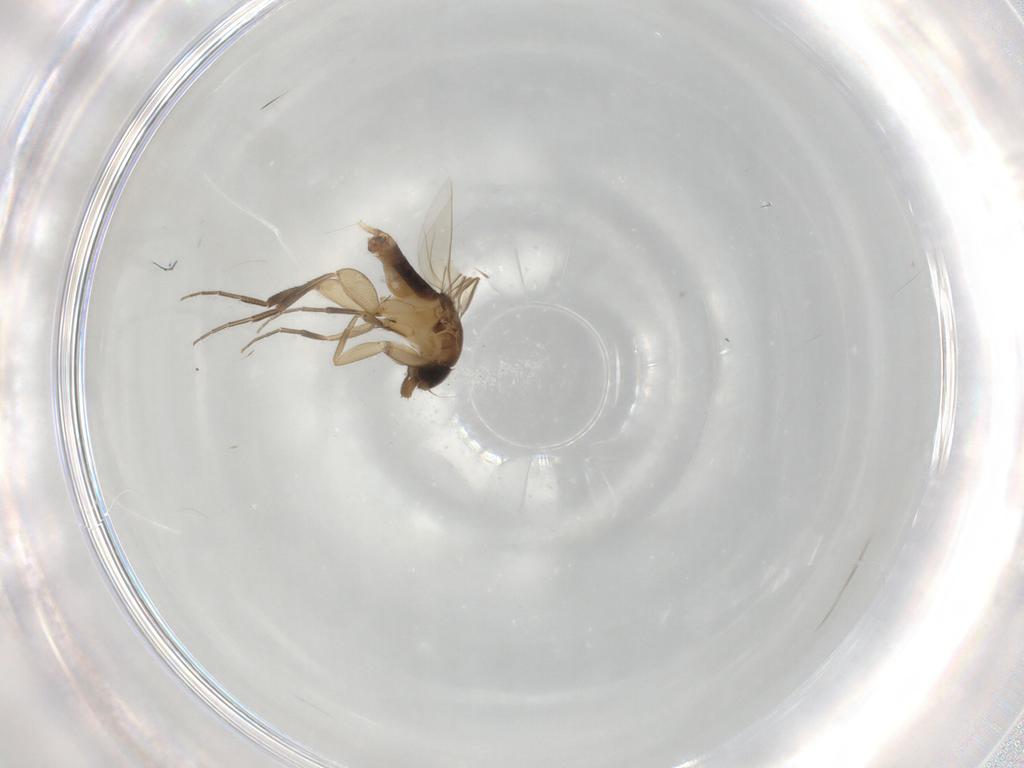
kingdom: Animalia
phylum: Arthropoda
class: Insecta
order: Diptera
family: Phoridae
